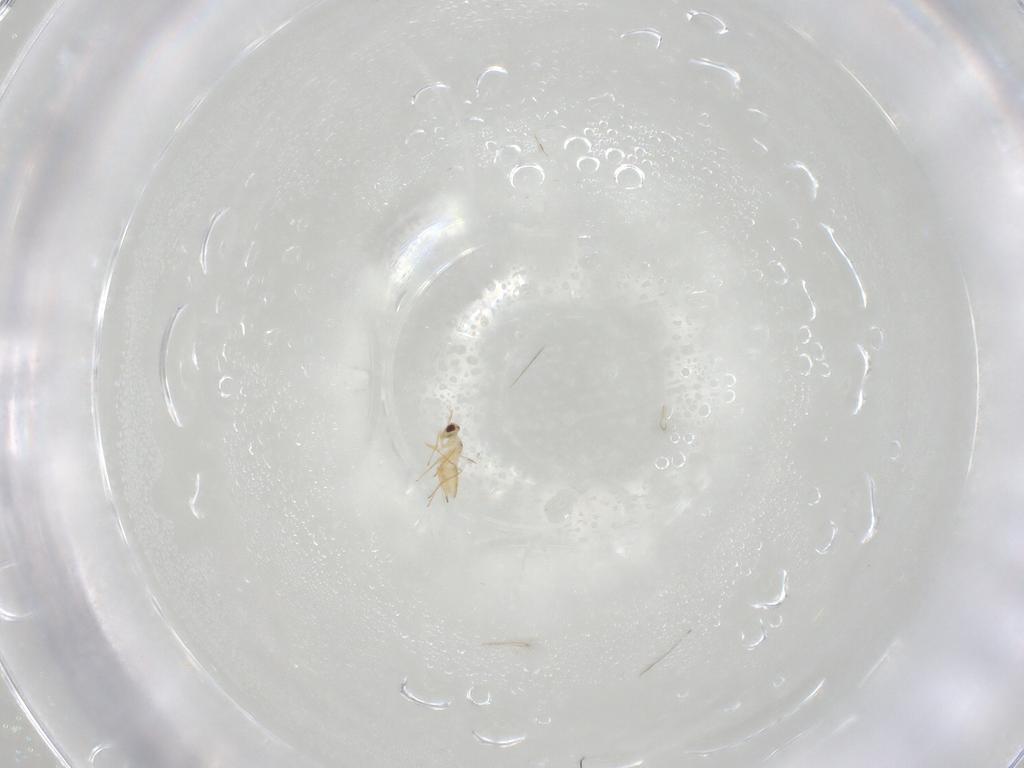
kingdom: Animalia
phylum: Arthropoda
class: Insecta
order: Hymenoptera
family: Mymaridae
